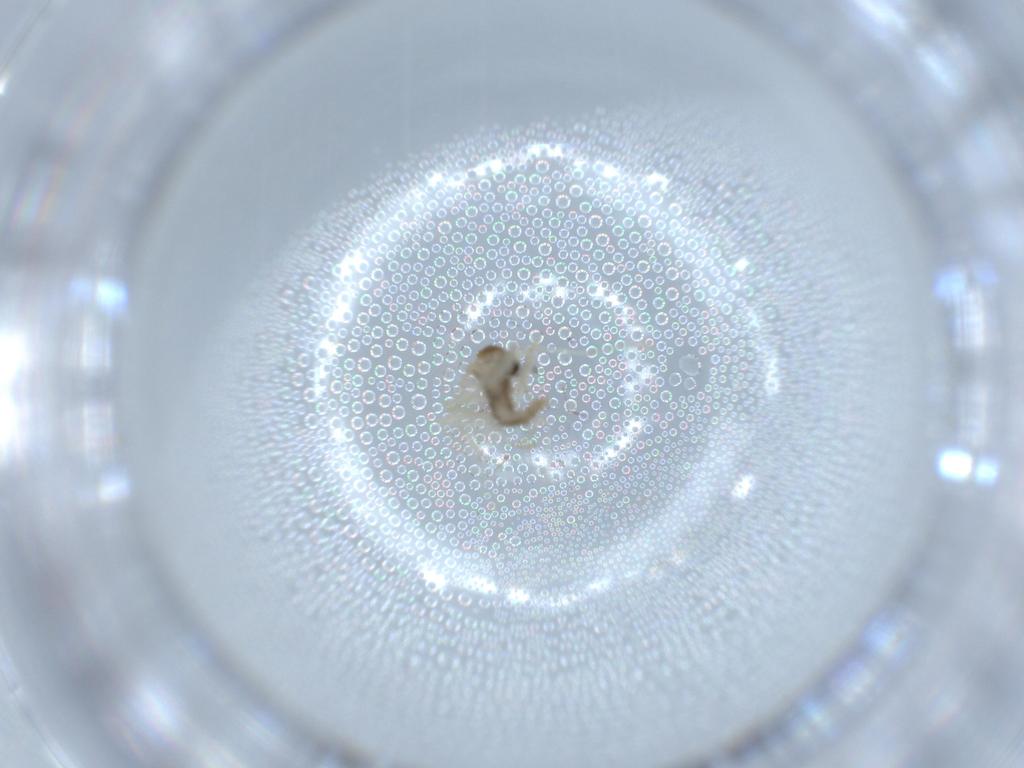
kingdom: Animalia
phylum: Arthropoda
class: Insecta
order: Diptera
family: Cecidomyiidae
